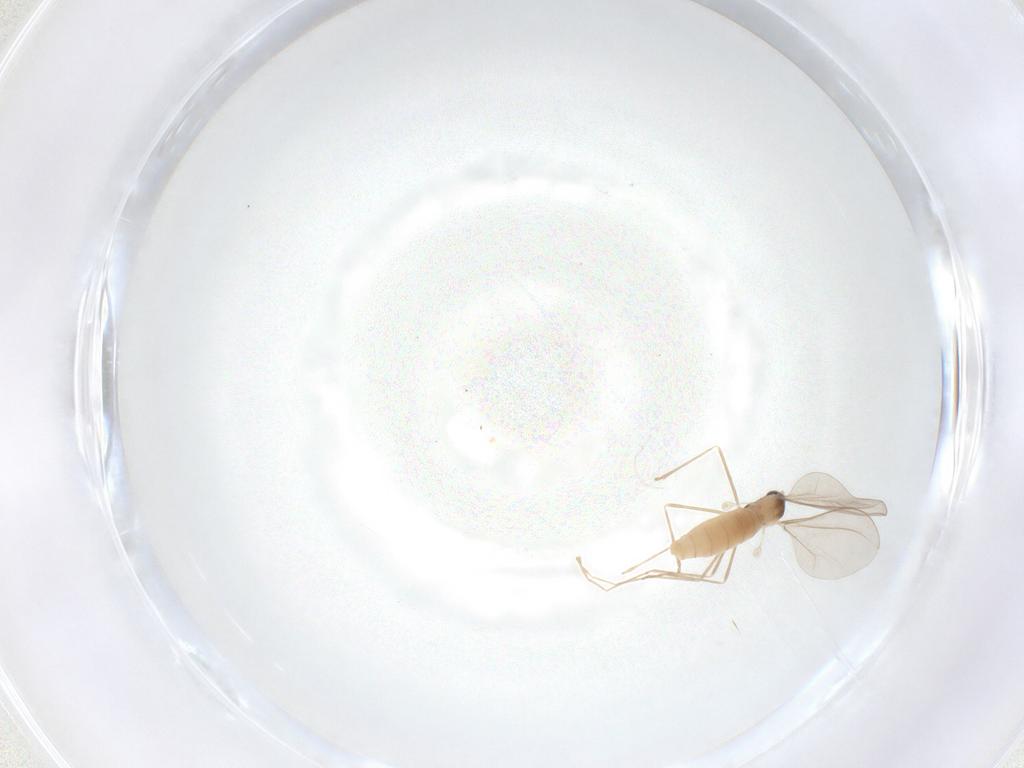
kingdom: Animalia
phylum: Arthropoda
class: Insecta
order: Diptera
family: Cecidomyiidae
